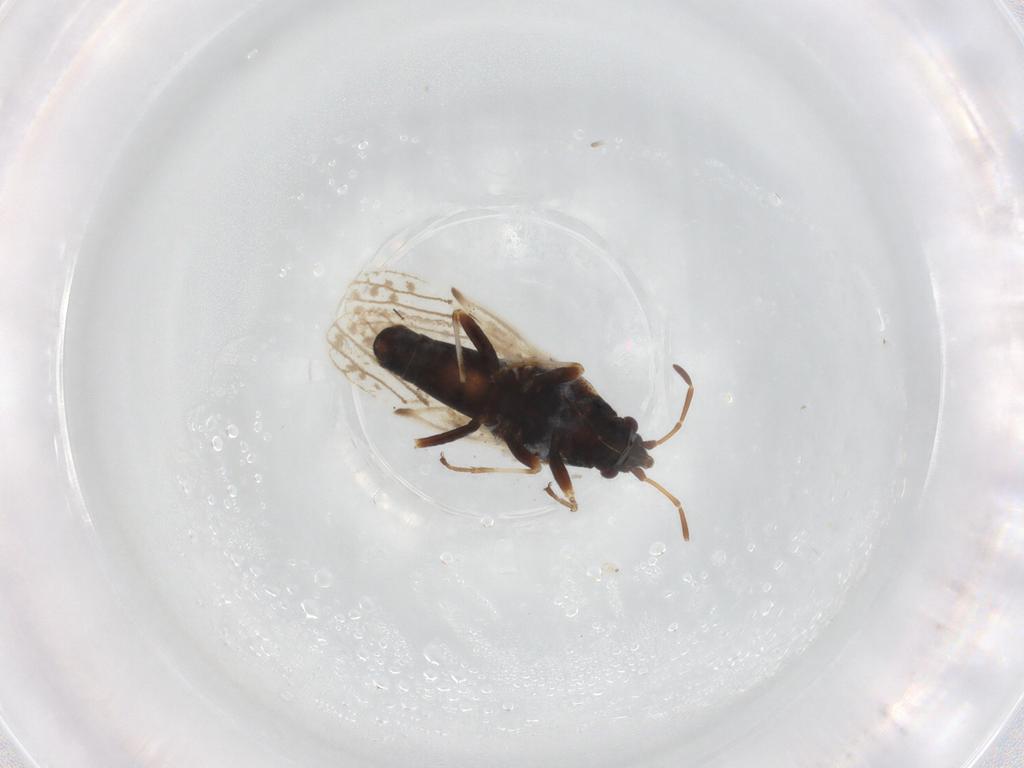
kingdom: Animalia
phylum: Arthropoda
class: Insecta
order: Hemiptera
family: Cicadellidae
